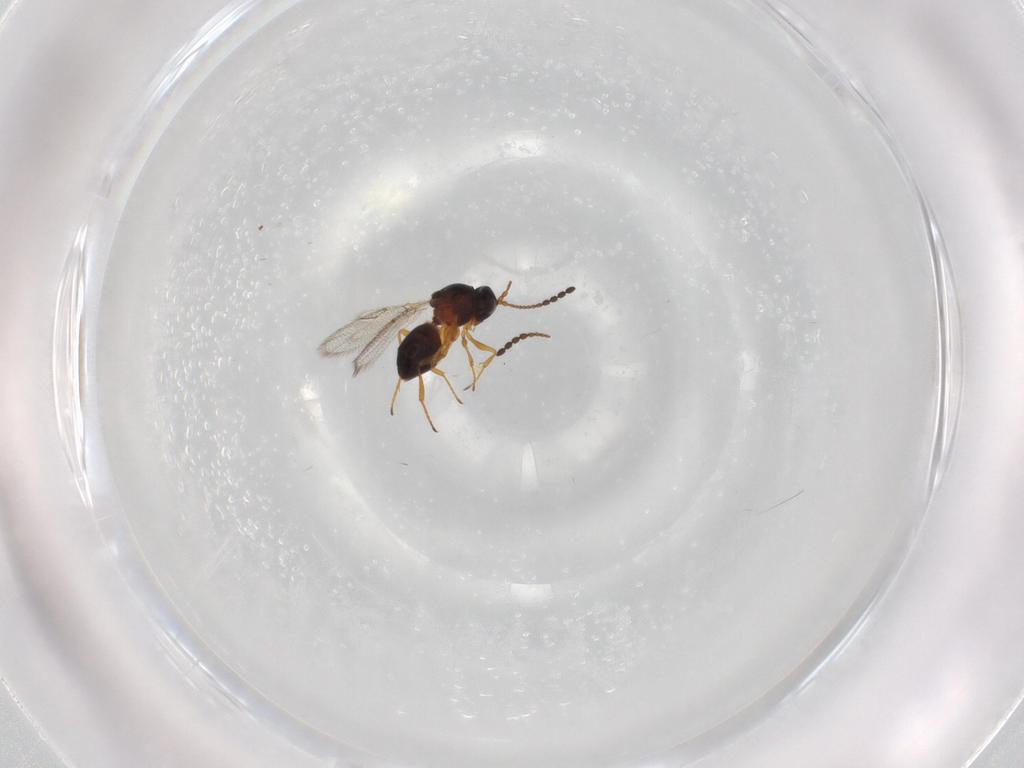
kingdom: Animalia
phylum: Arthropoda
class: Insecta
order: Hymenoptera
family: Figitidae
